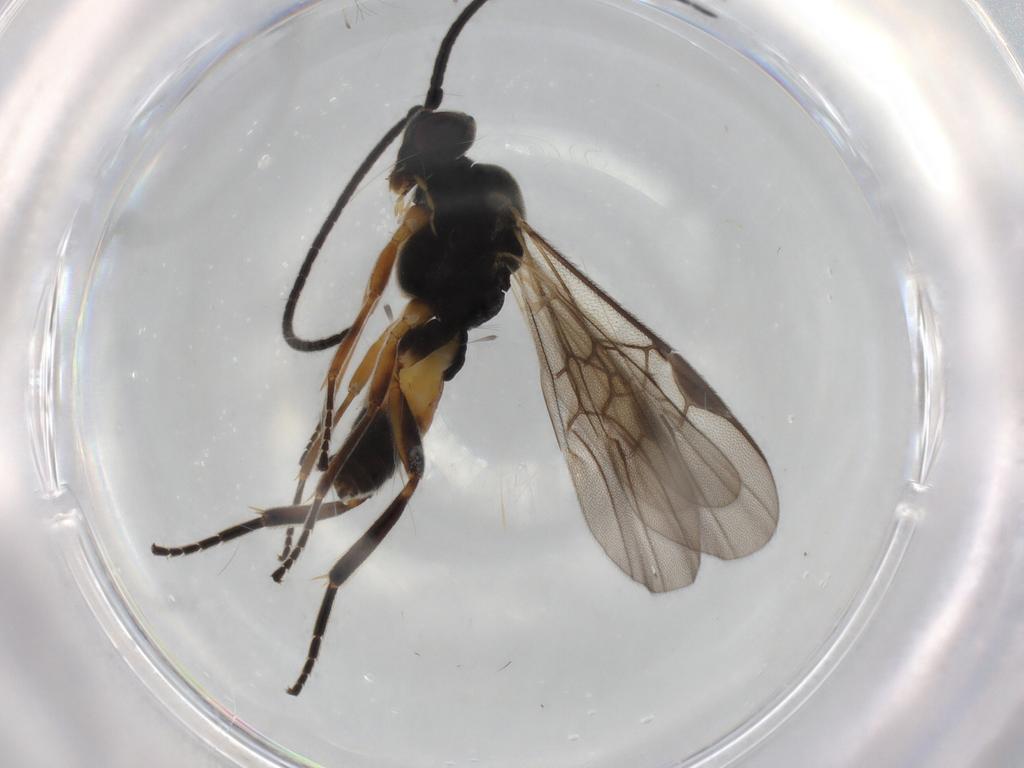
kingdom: Animalia
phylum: Arthropoda
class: Insecta
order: Hymenoptera
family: Braconidae
